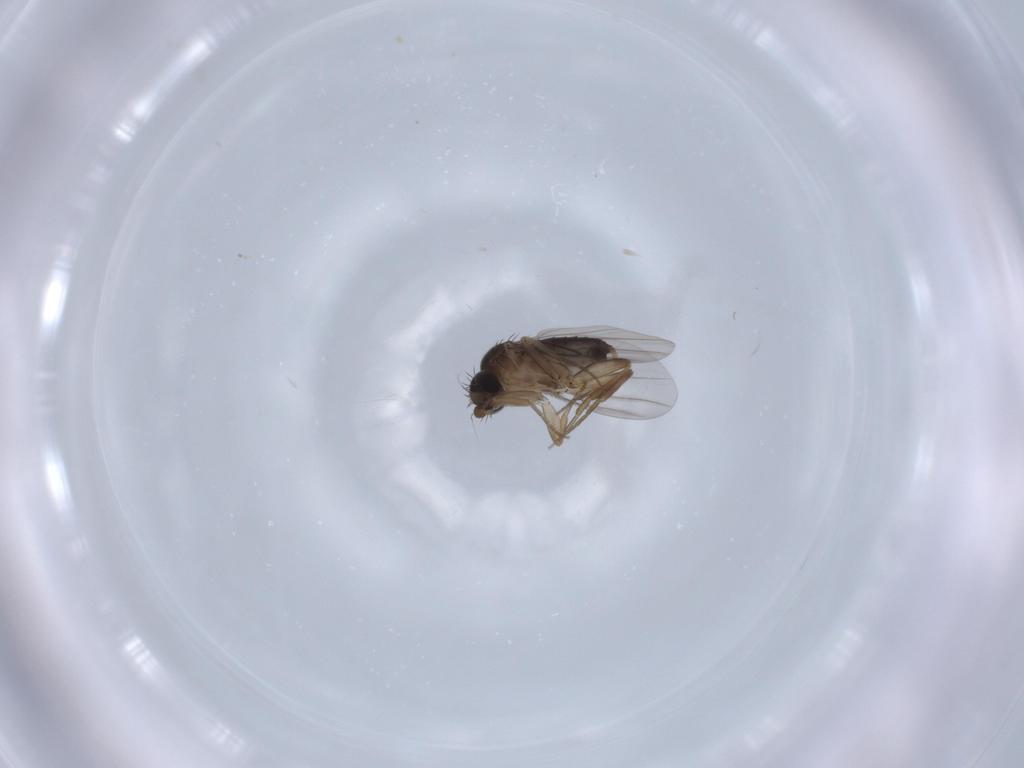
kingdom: Animalia
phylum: Arthropoda
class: Insecta
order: Diptera
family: Phoridae
